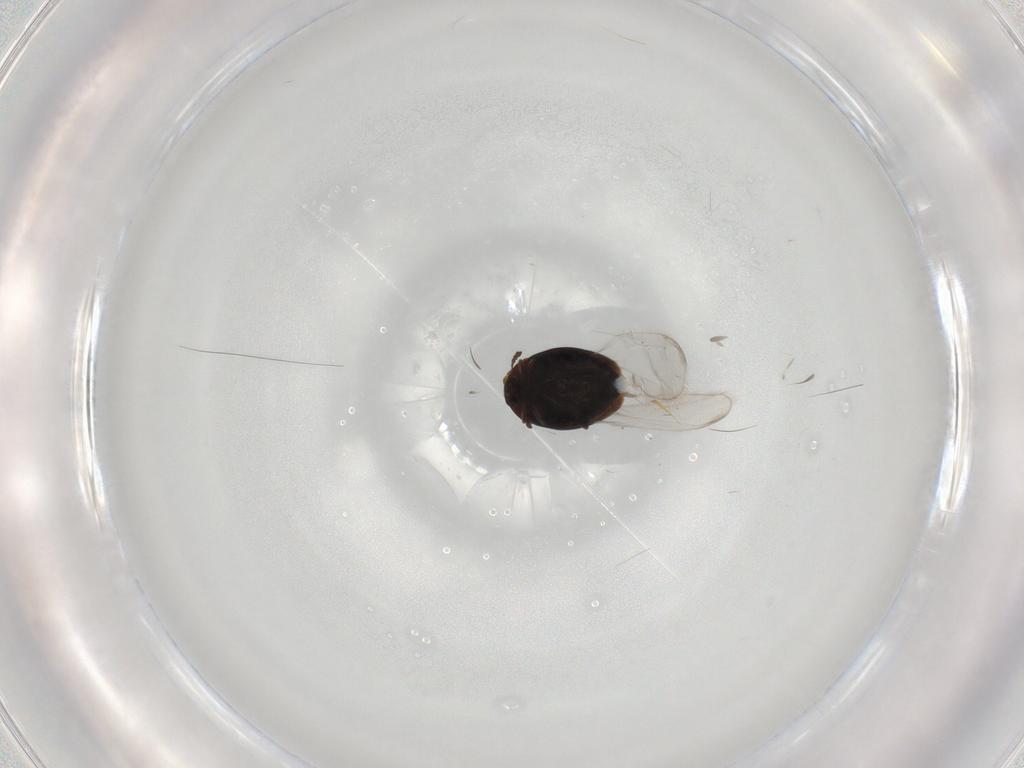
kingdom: Animalia
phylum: Arthropoda
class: Insecta
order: Coleoptera
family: Corylophidae
